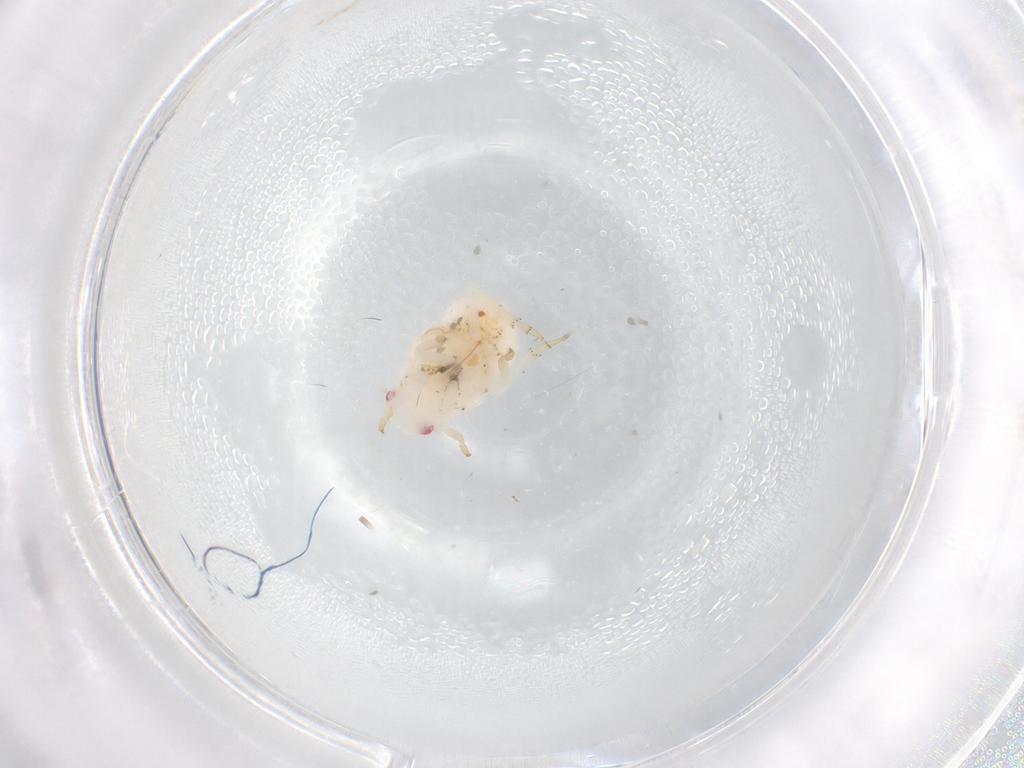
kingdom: Animalia
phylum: Arthropoda
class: Insecta
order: Hemiptera
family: Flatidae
